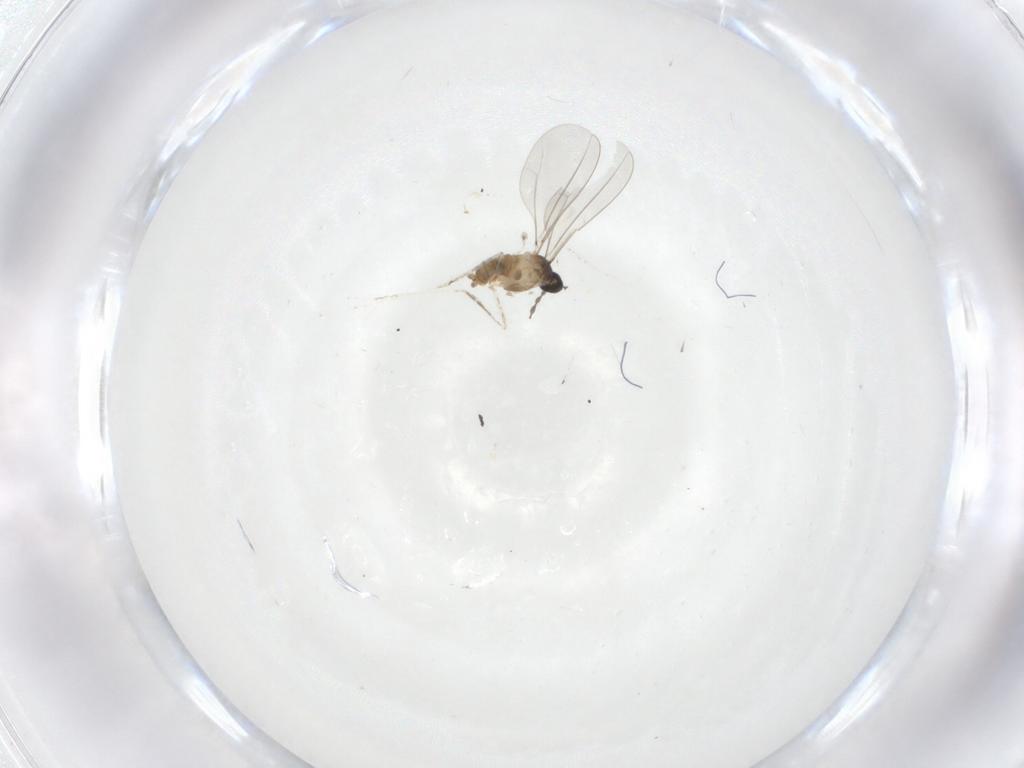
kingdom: Animalia
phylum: Arthropoda
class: Insecta
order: Diptera
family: Cecidomyiidae
